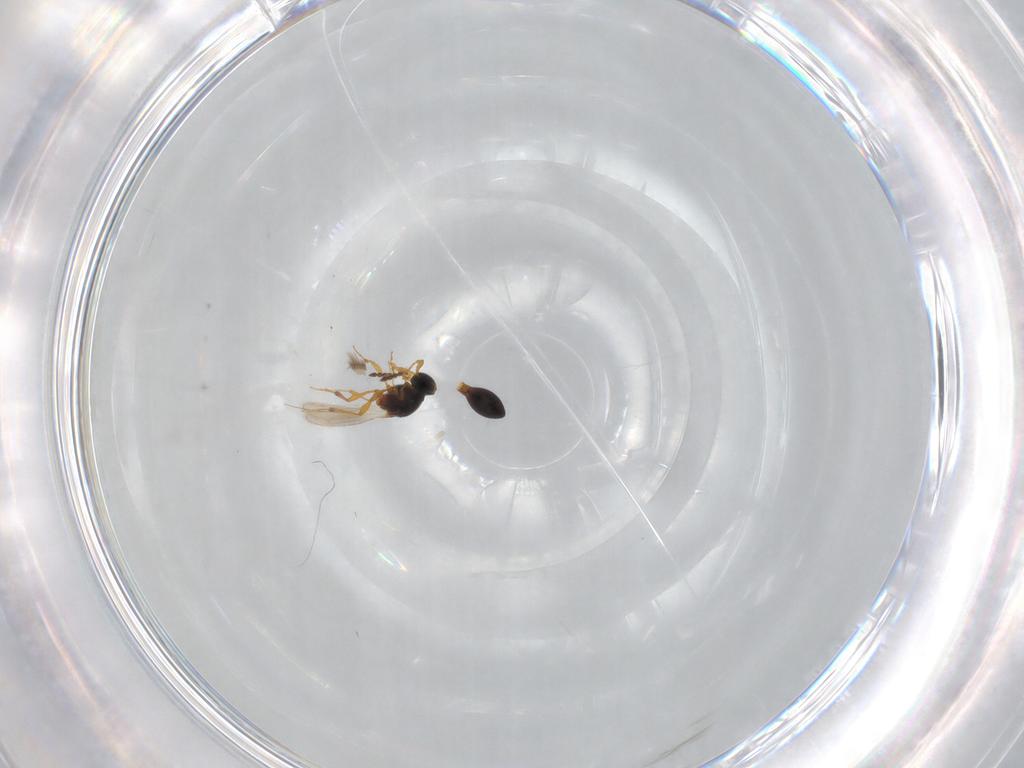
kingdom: Animalia
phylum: Arthropoda
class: Insecta
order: Hymenoptera
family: Platygastridae
